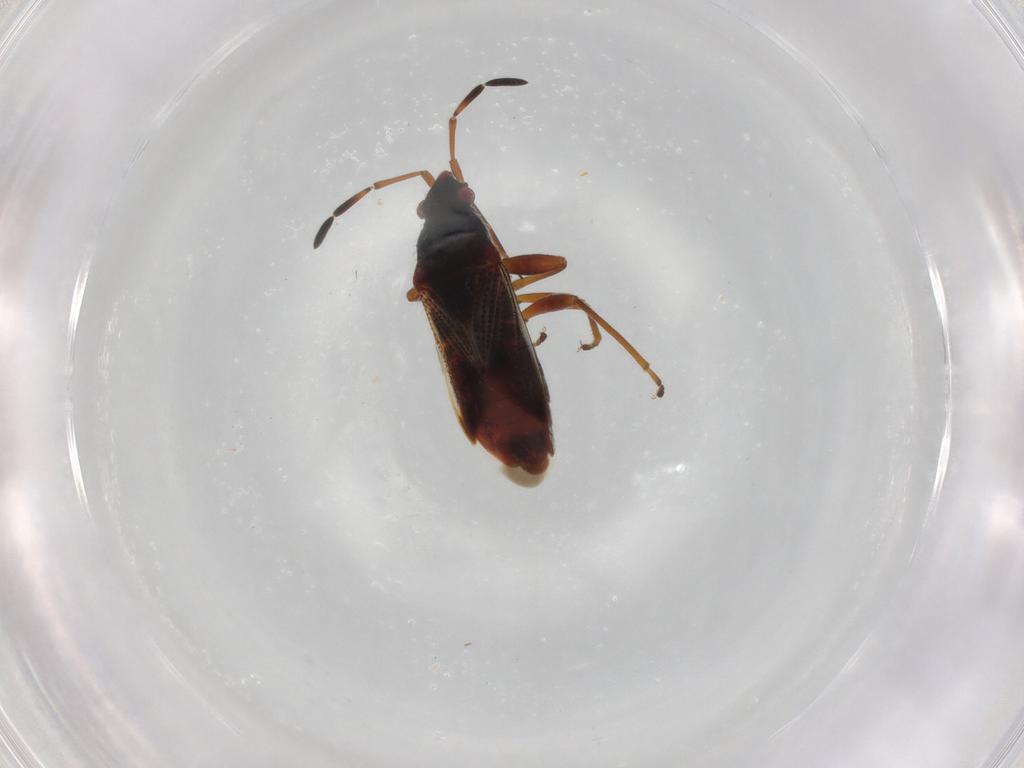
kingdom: Animalia
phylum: Arthropoda
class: Insecta
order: Hemiptera
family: Rhyparochromidae
